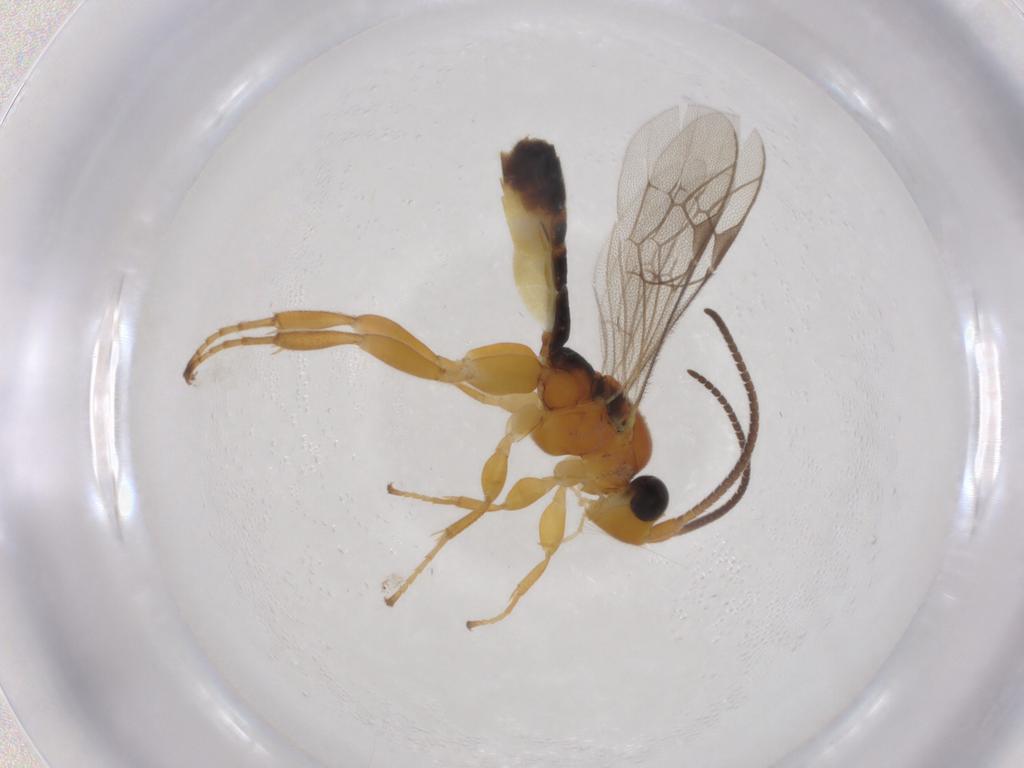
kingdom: Animalia
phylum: Arthropoda
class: Insecta
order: Hymenoptera
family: Ichneumonidae
